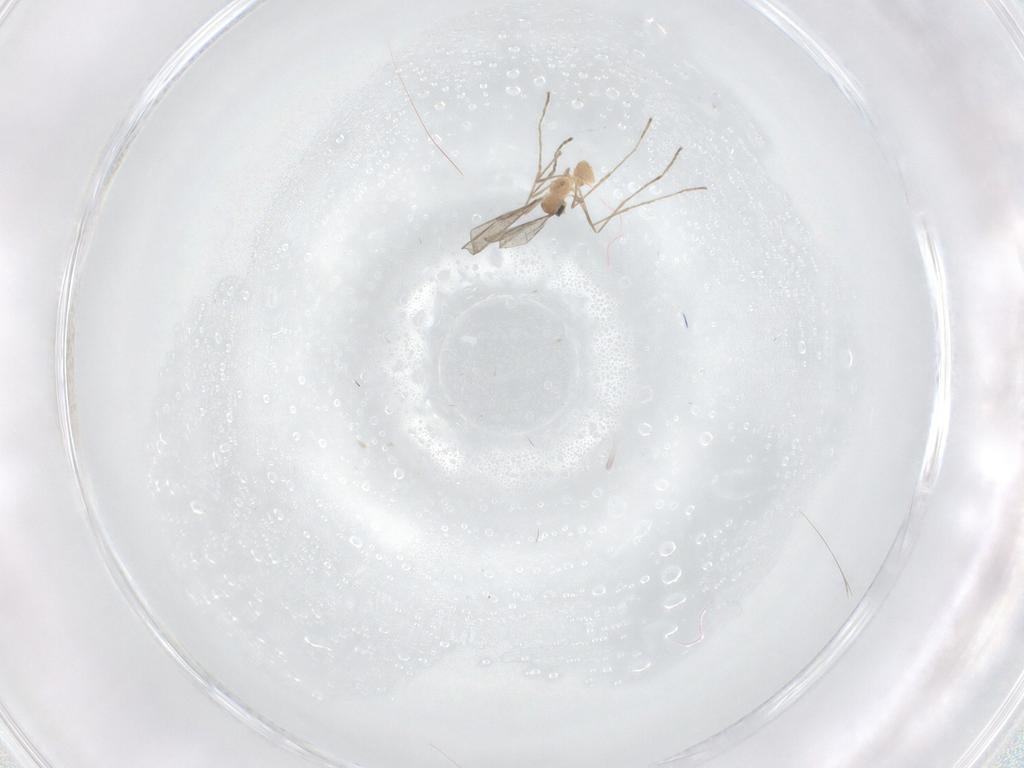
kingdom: Animalia
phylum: Arthropoda
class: Insecta
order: Diptera
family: Cecidomyiidae
